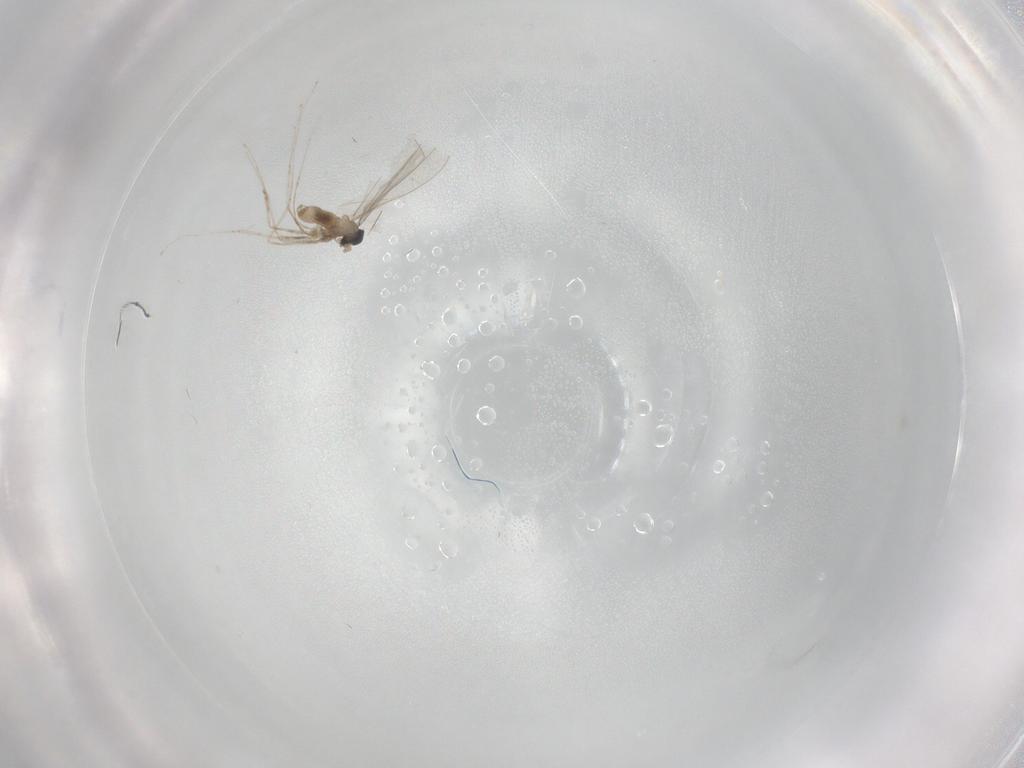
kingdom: Animalia
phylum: Arthropoda
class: Insecta
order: Diptera
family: Cecidomyiidae
